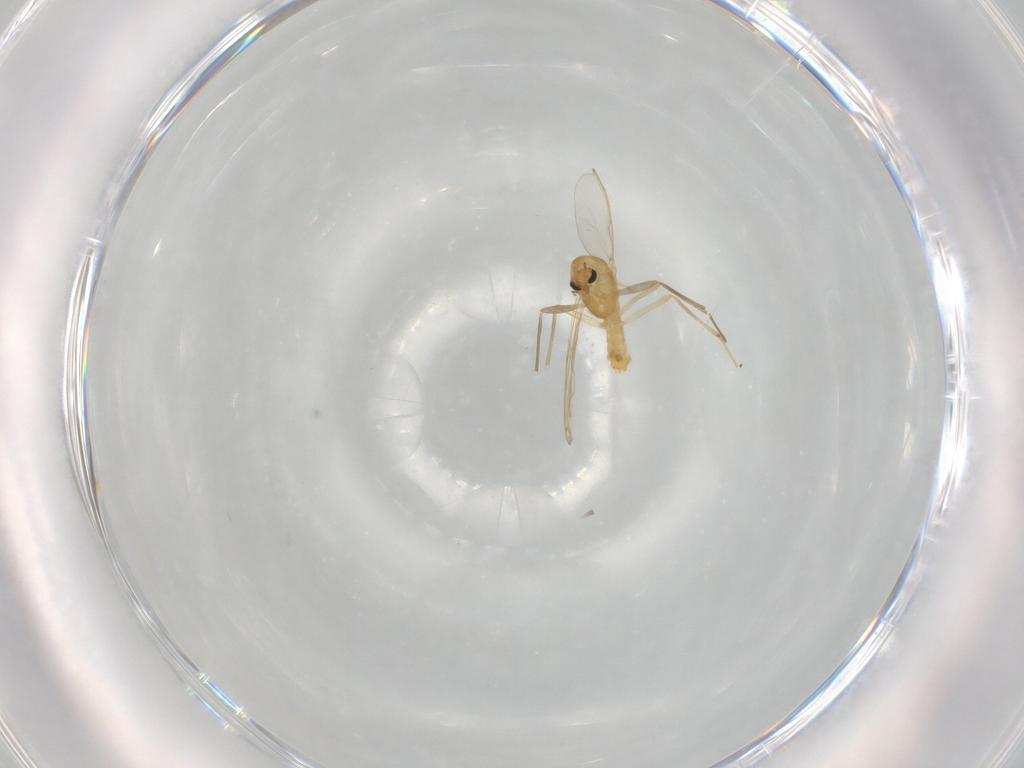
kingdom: Animalia
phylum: Arthropoda
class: Insecta
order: Diptera
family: Chironomidae
